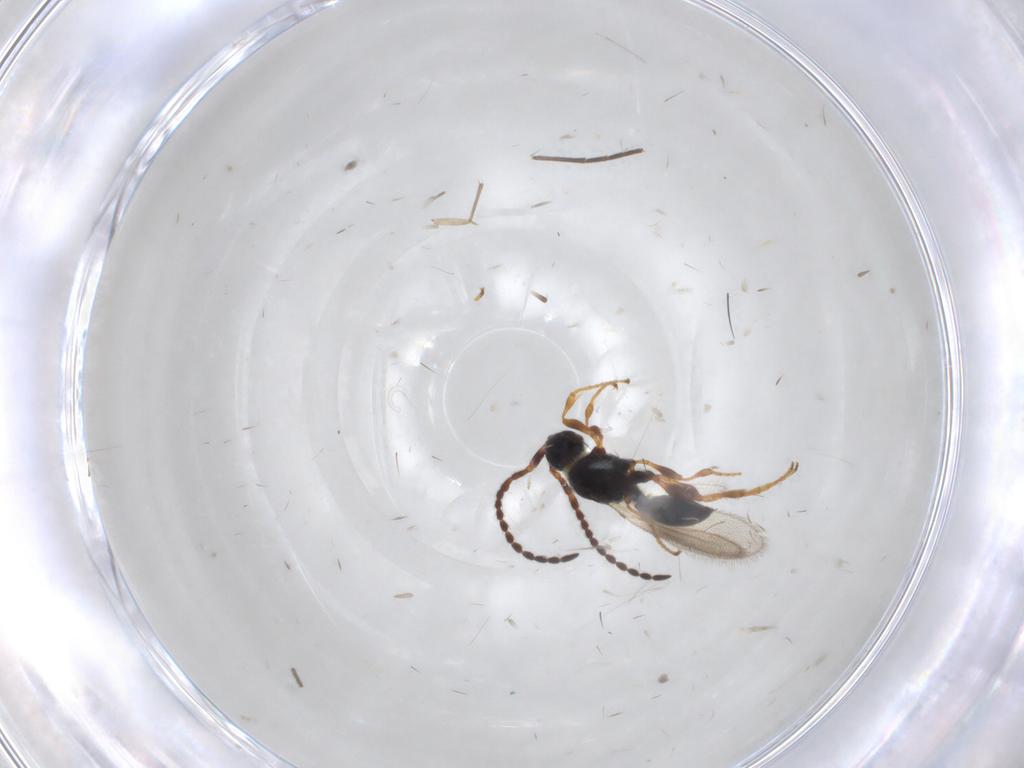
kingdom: Animalia
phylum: Arthropoda
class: Insecta
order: Hymenoptera
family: Diapriidae
